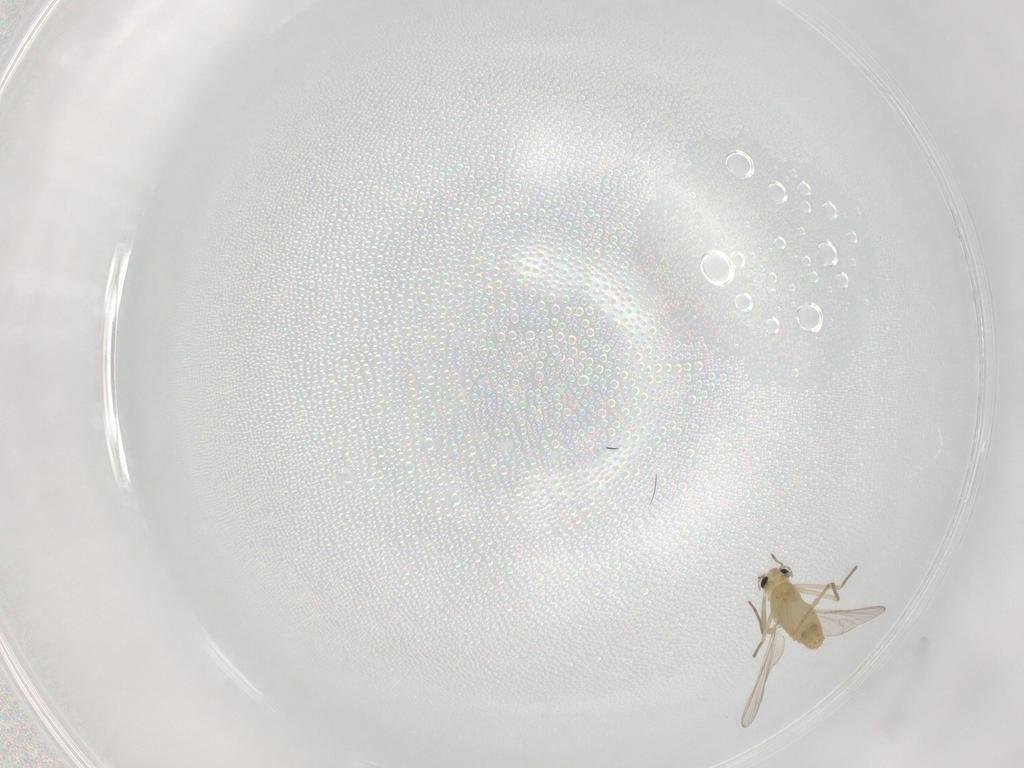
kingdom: Animalia
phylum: Arthropoda
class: Insecta
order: Diptera
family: Chironomidae
